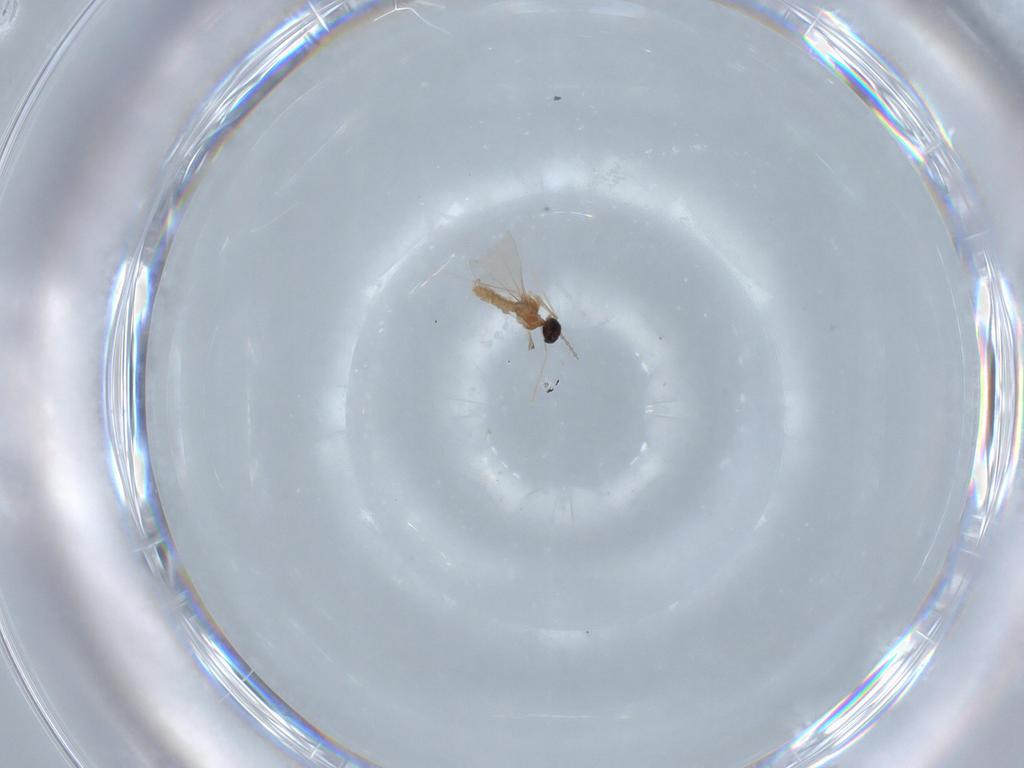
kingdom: Animalia
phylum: Arthropoda
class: Insecta
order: Diptera
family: Cecidomyiidae
